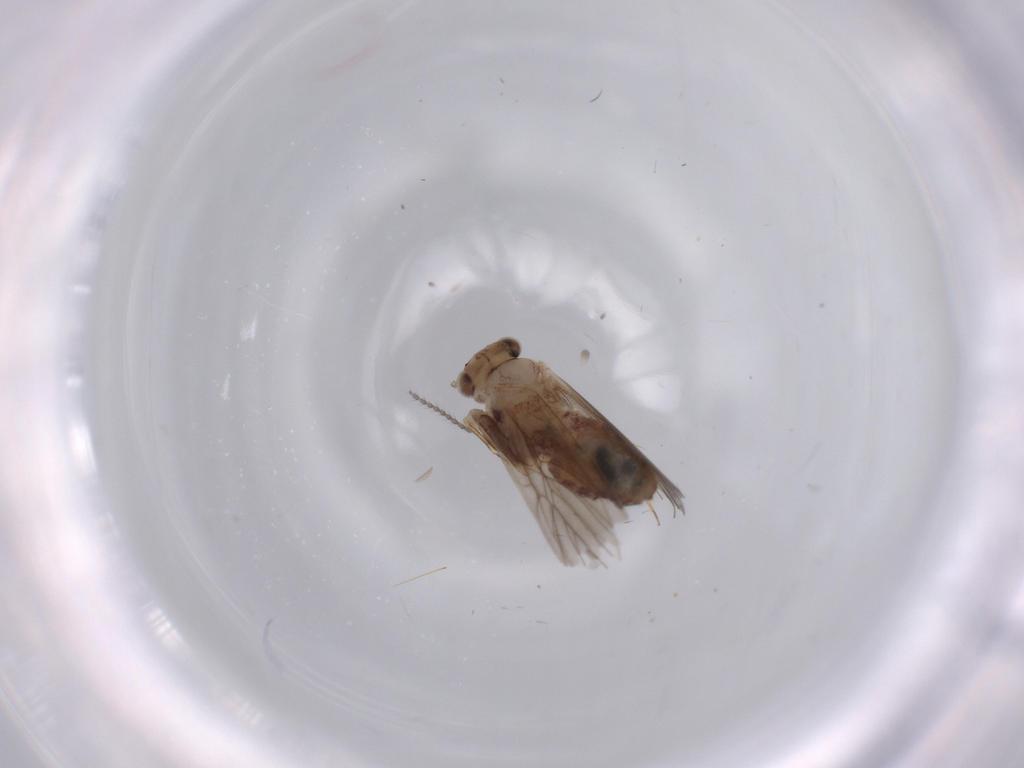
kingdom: Animalia
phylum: Arthropoda
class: Insecta
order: Psocodea
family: Lepidopsocidae
